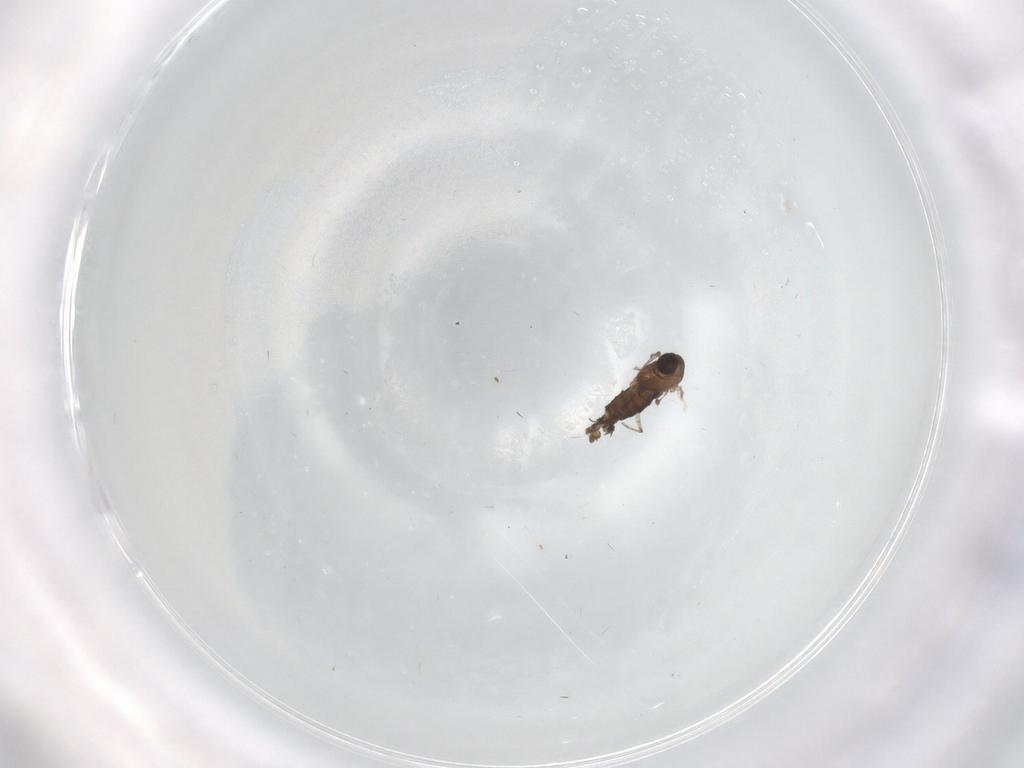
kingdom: Animalia
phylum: Arthropoda
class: Insecta
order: Diptera
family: Chironomidae
